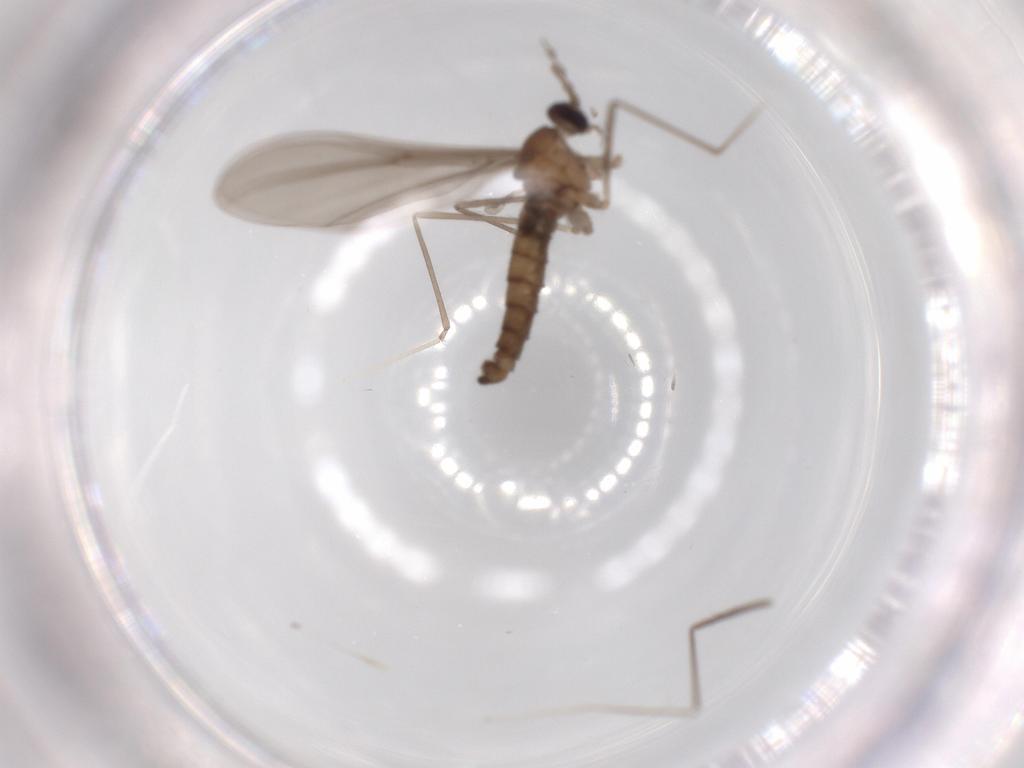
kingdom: Animalia
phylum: Arthropoda
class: Insecta
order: Diptera
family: Cecidomyiidae
